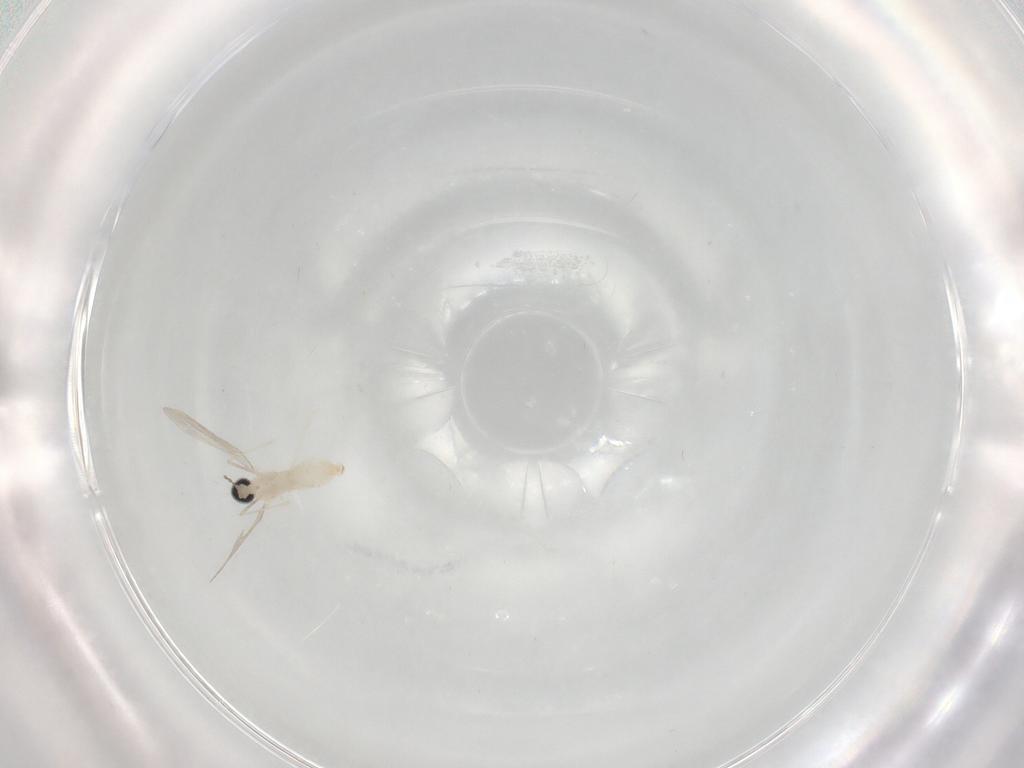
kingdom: Animalia
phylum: Arthropoda
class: Insecta
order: Diptera
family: Cecidomyiidae
